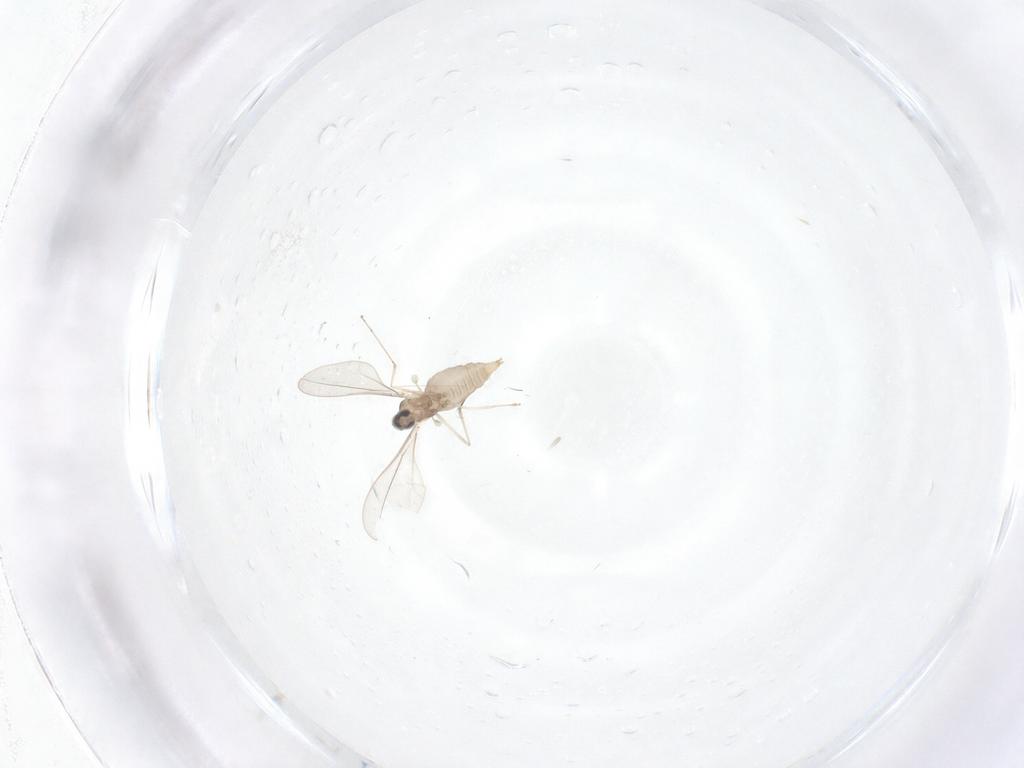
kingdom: Animalia
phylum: Arthropoda
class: Insecta
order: Diptera
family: Cecidomyiidae
